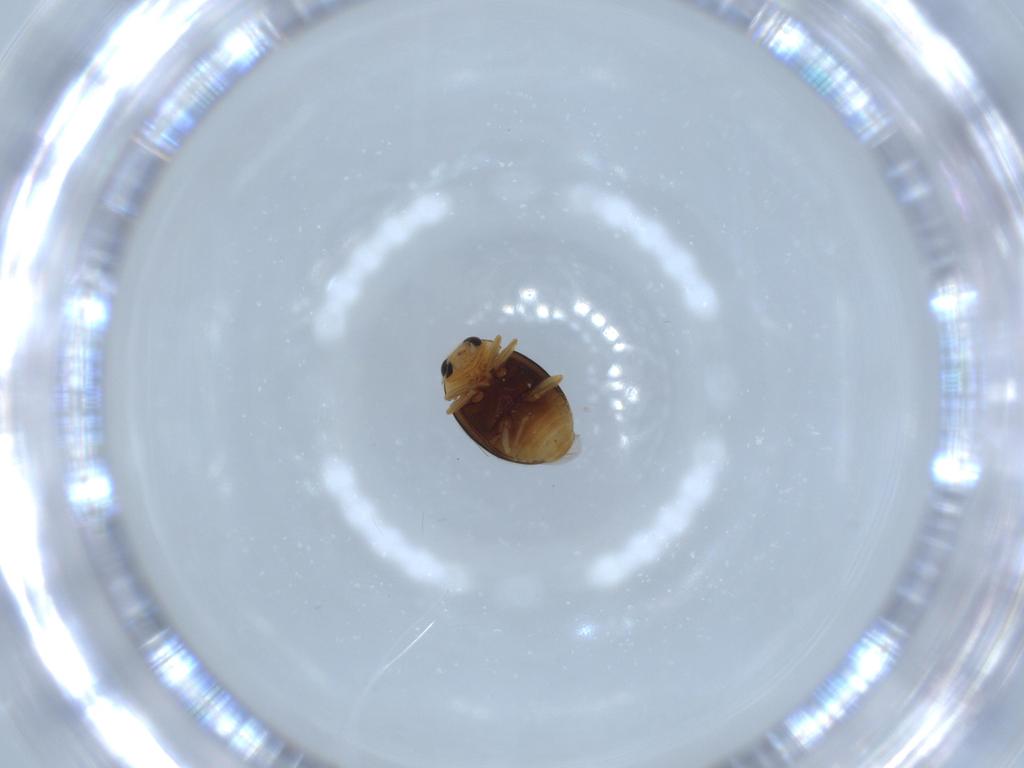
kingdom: Animalia
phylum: Arthropoda
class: Insecta
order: Coleoptera
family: Coccinellidae
